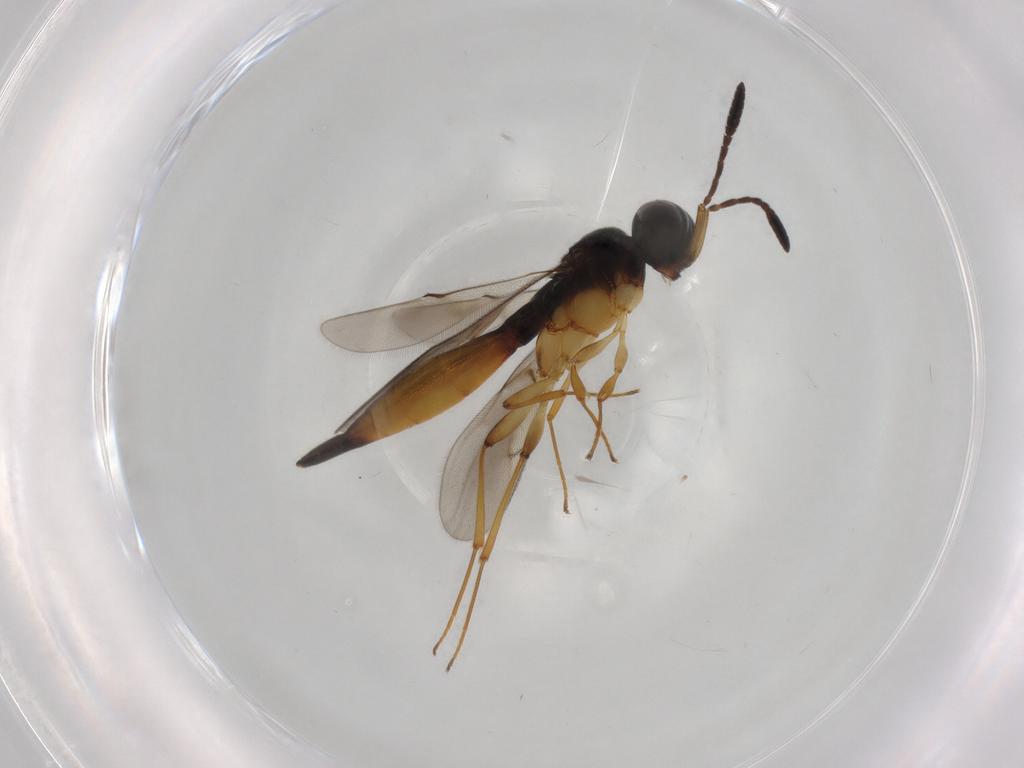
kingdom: Animalia
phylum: Arthropoda
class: Insecta
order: Hymenoptera
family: Scelionidae
